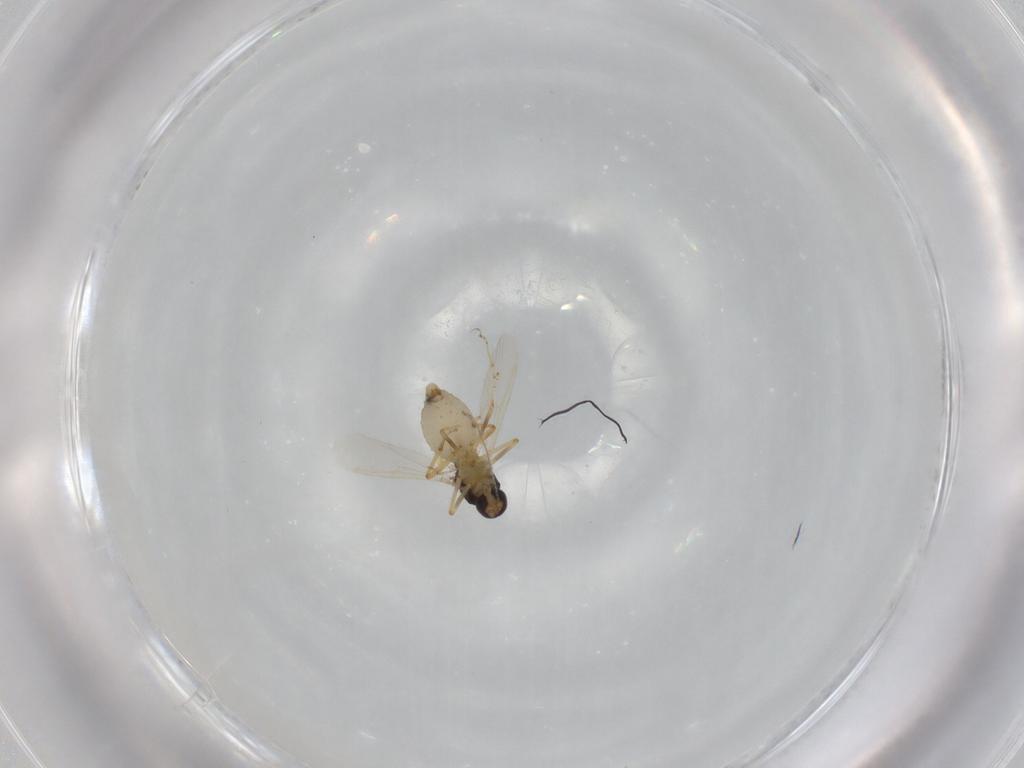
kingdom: Animalia
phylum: Arthropoda
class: Insecta
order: Diptera
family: Ceratopogonidae
